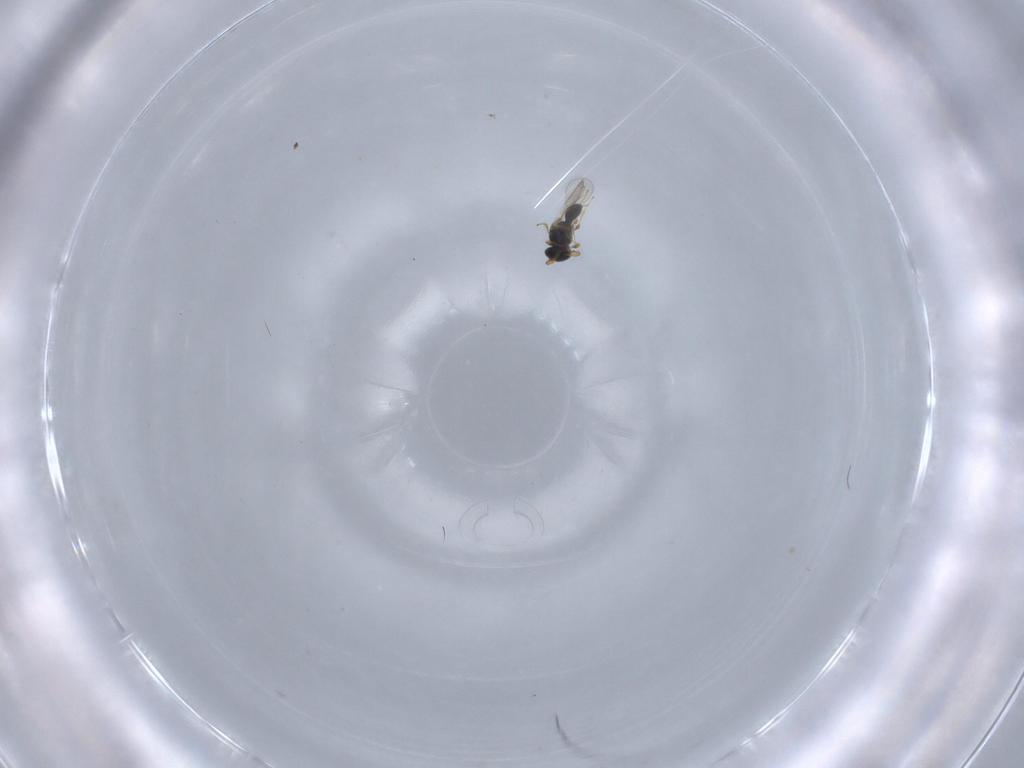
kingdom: Animalia
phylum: Arthropoda
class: Insecta
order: Hymenoptera
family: Platygastridae
